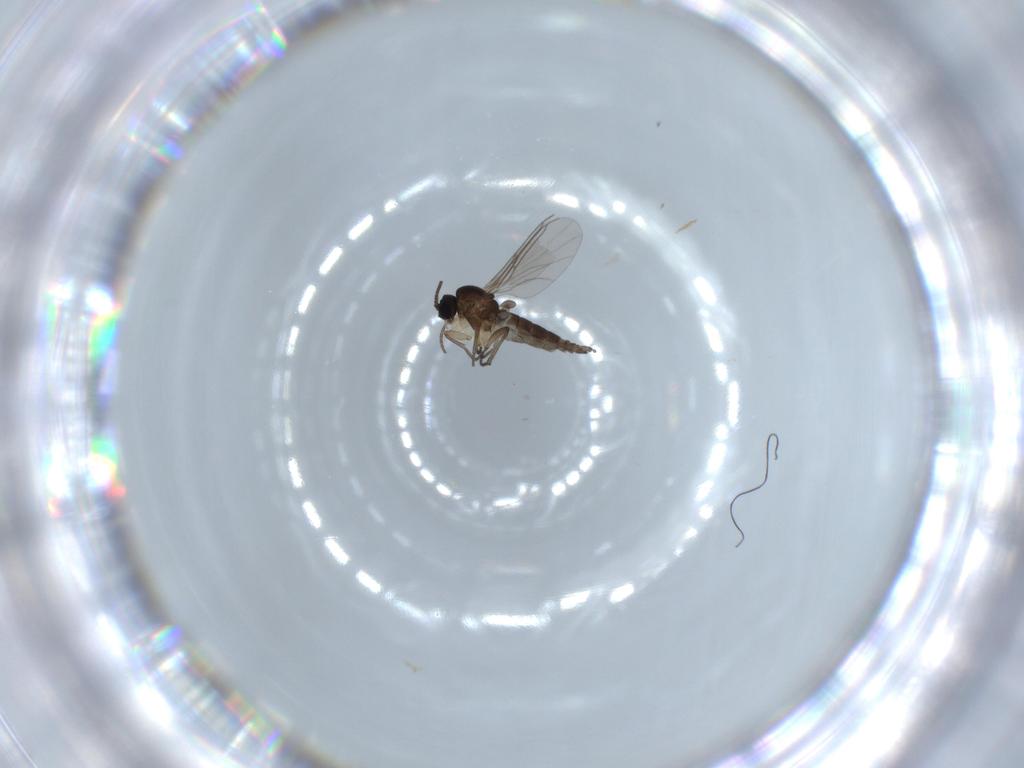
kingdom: Animalia
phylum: Arthropoda
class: Insecta
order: Diptera
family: Sciaridae
